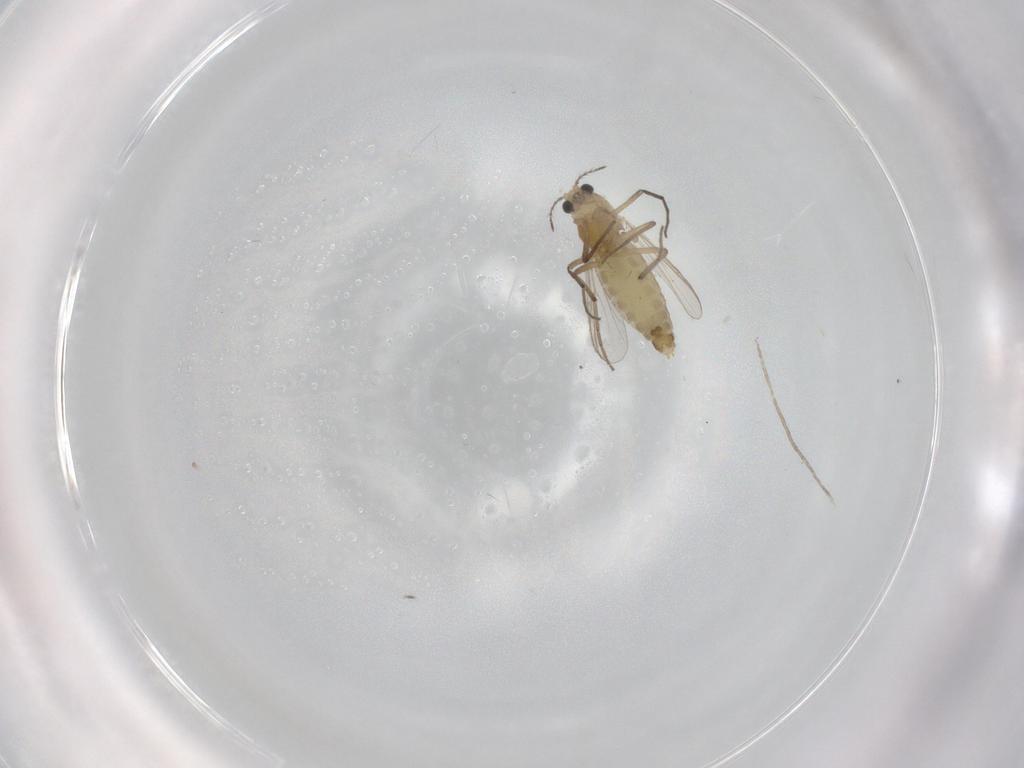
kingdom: Animalia
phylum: Arthropoda
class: Insecta
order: Diptera
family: Chironomidae
